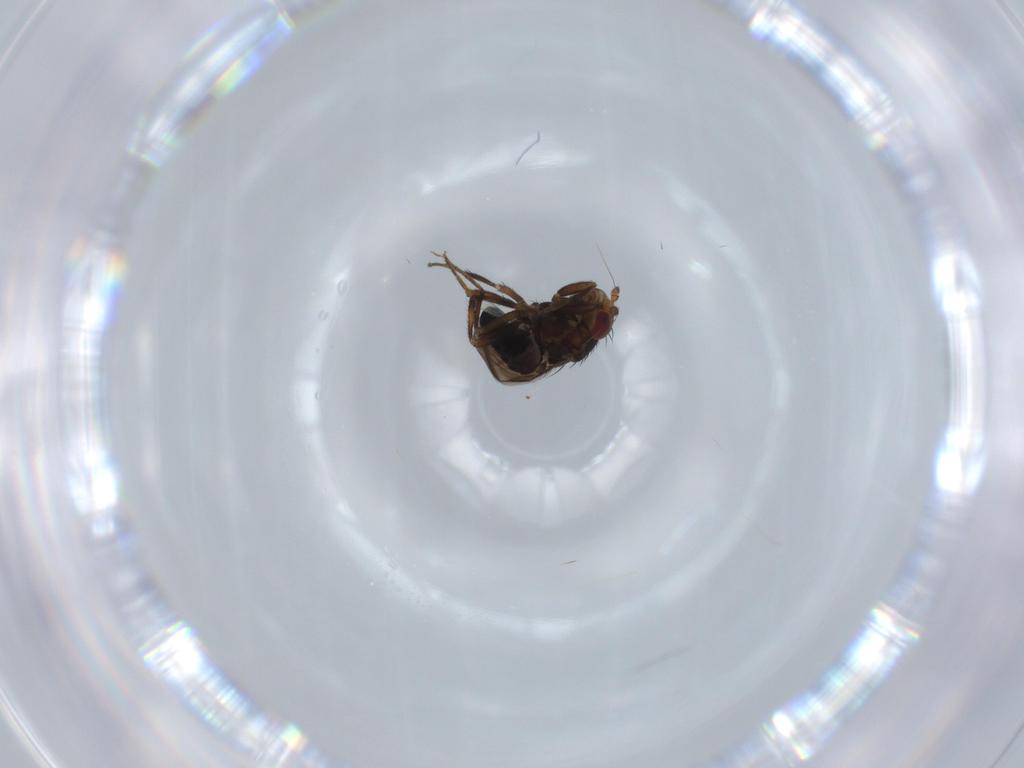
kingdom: Animalia
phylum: Arthropoda
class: Insecta
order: Diptera
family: Sphaeroceridae
